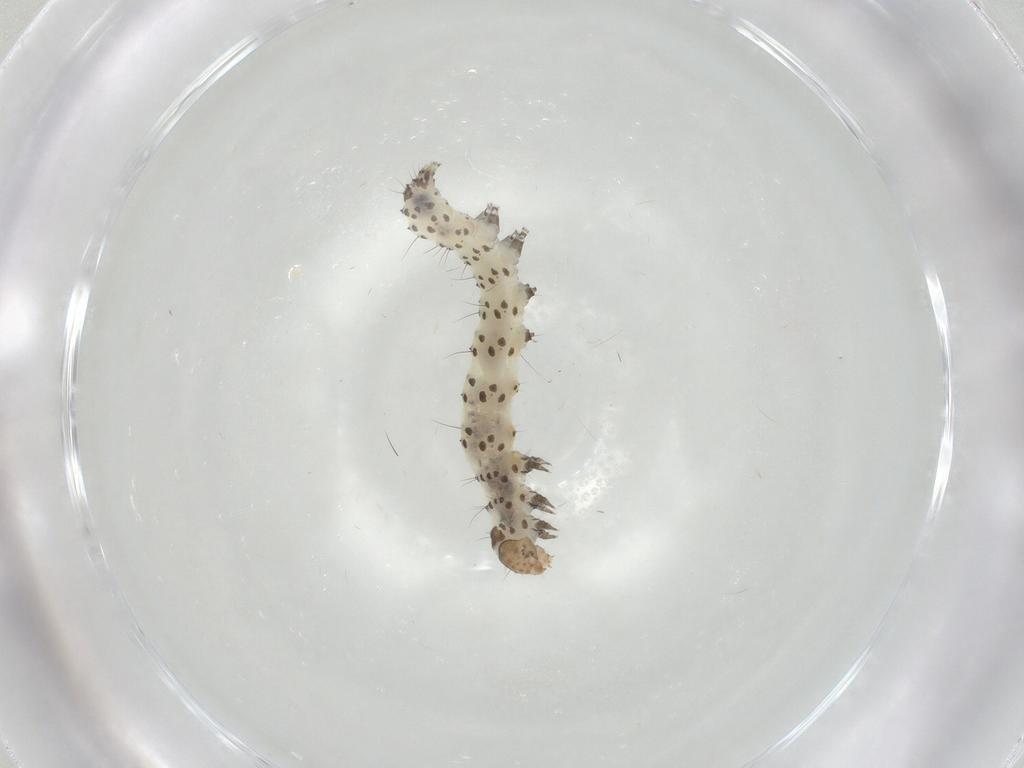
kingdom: Animalia
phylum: Arthropoda
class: Insecta
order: Lepidoptera
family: Noctuidae
